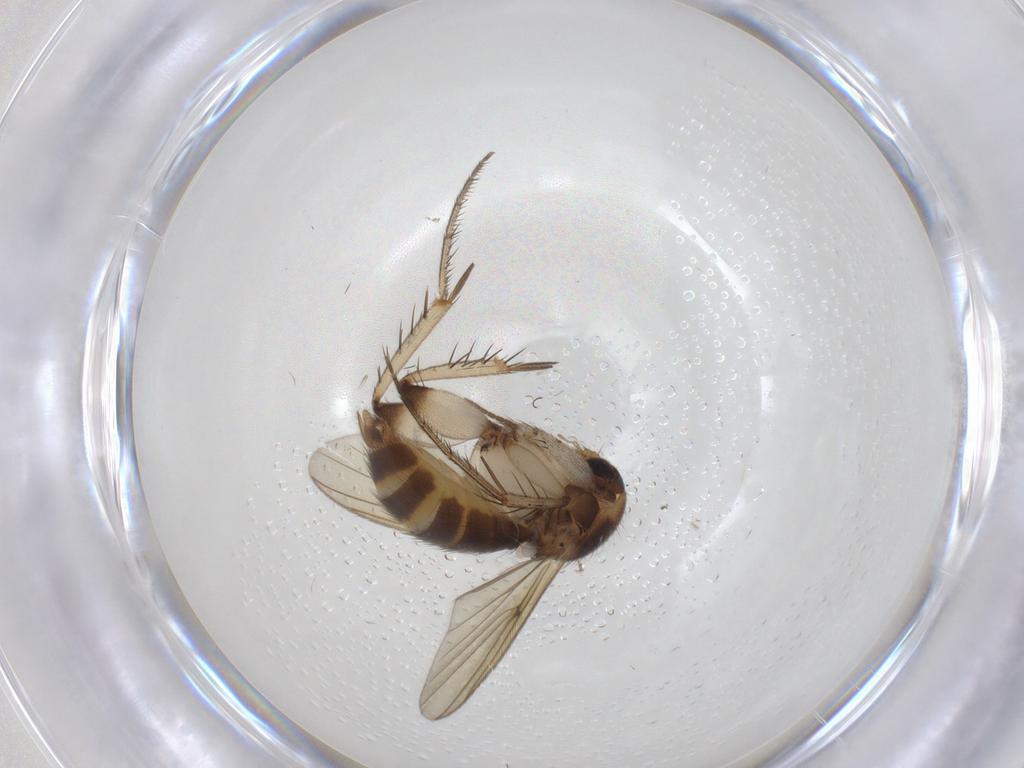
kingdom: Animalia
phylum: Arthropoda
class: Insecta
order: Diptera
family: Mycetophilidae
